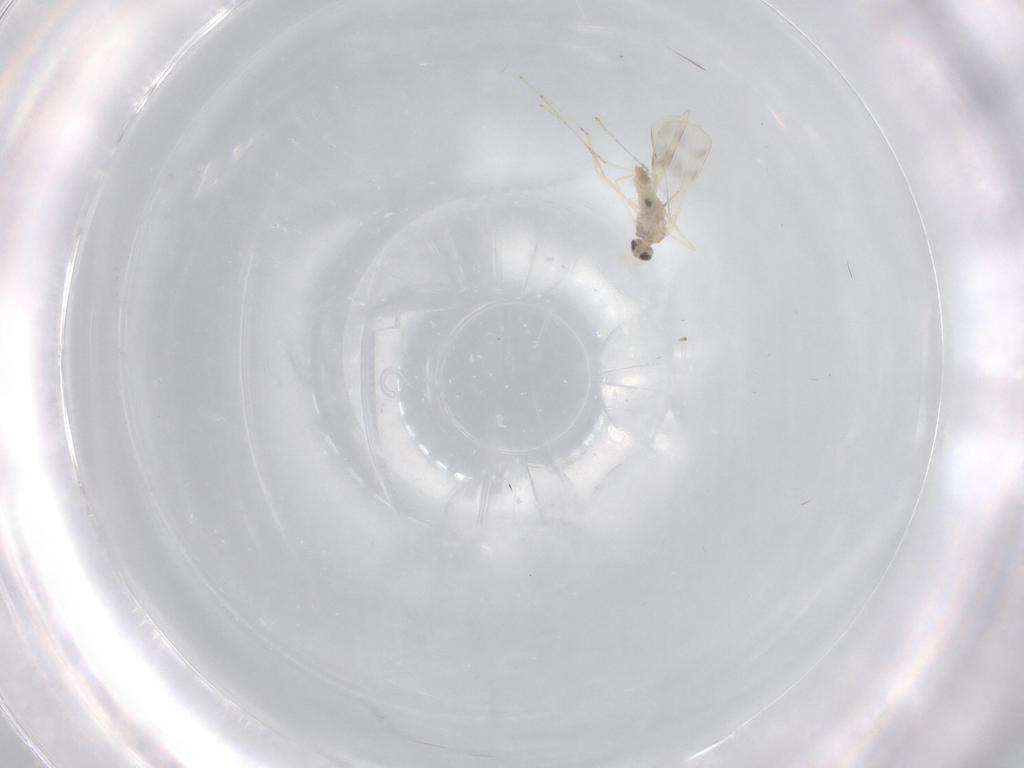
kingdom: Animalia
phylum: Arthropoda
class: Insecta
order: Diptera
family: Cecidomyiidae
